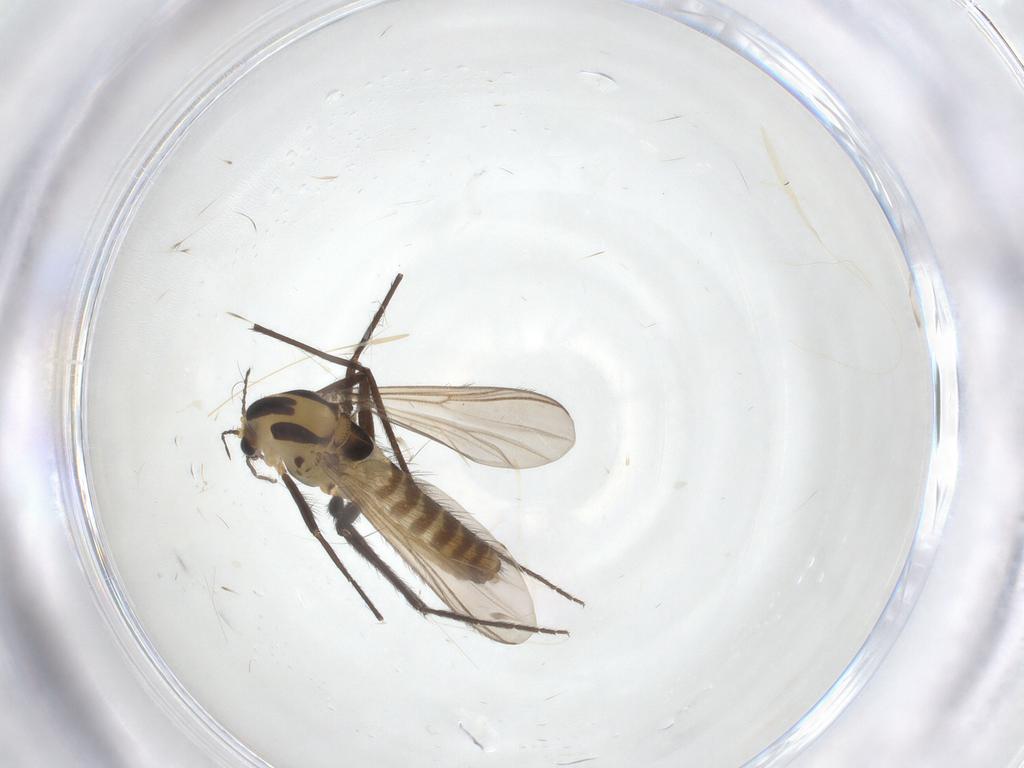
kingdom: Animalia
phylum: Arthropoda
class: Insecta
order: Diptera
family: Chironomidae
